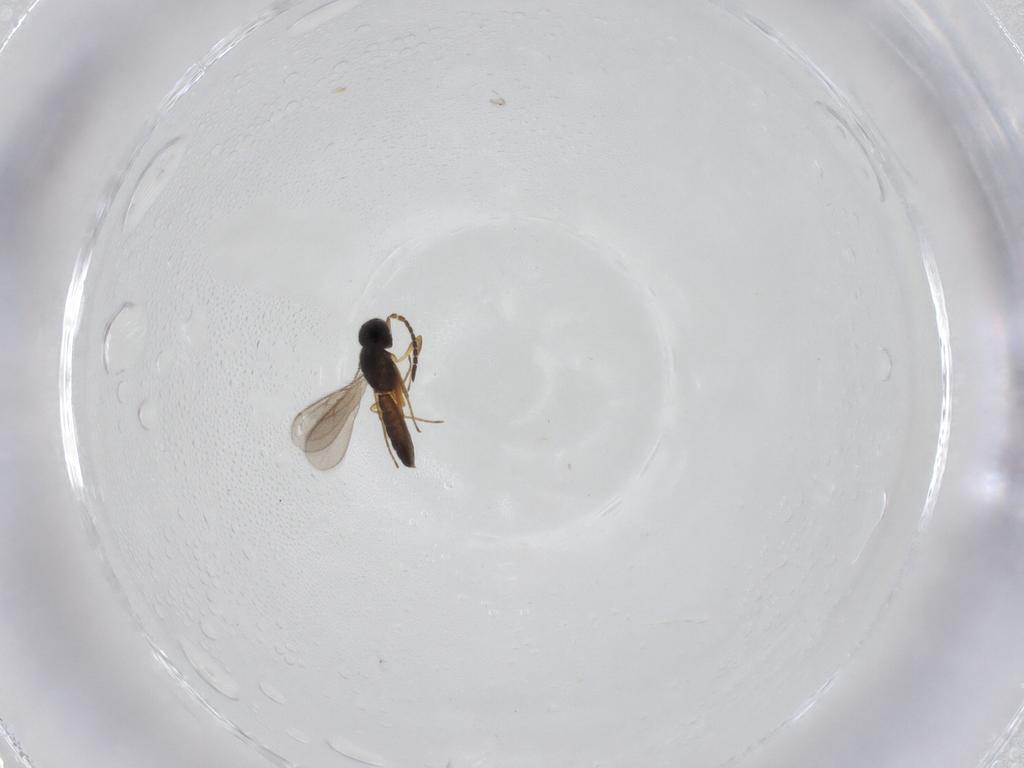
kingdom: Animalia
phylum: Arthropoda
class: Insecta
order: Hymenoptera
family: Scelionidae
